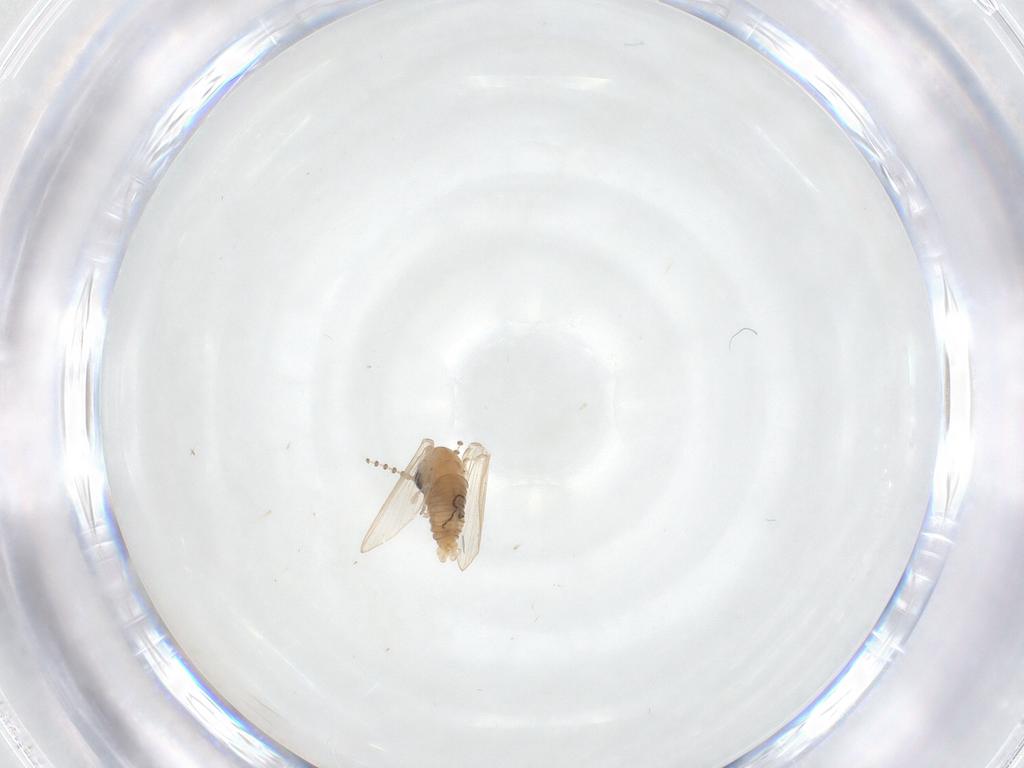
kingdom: Animalia
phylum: Arthropoda
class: Insecta
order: Diptera
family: Psychodidae
